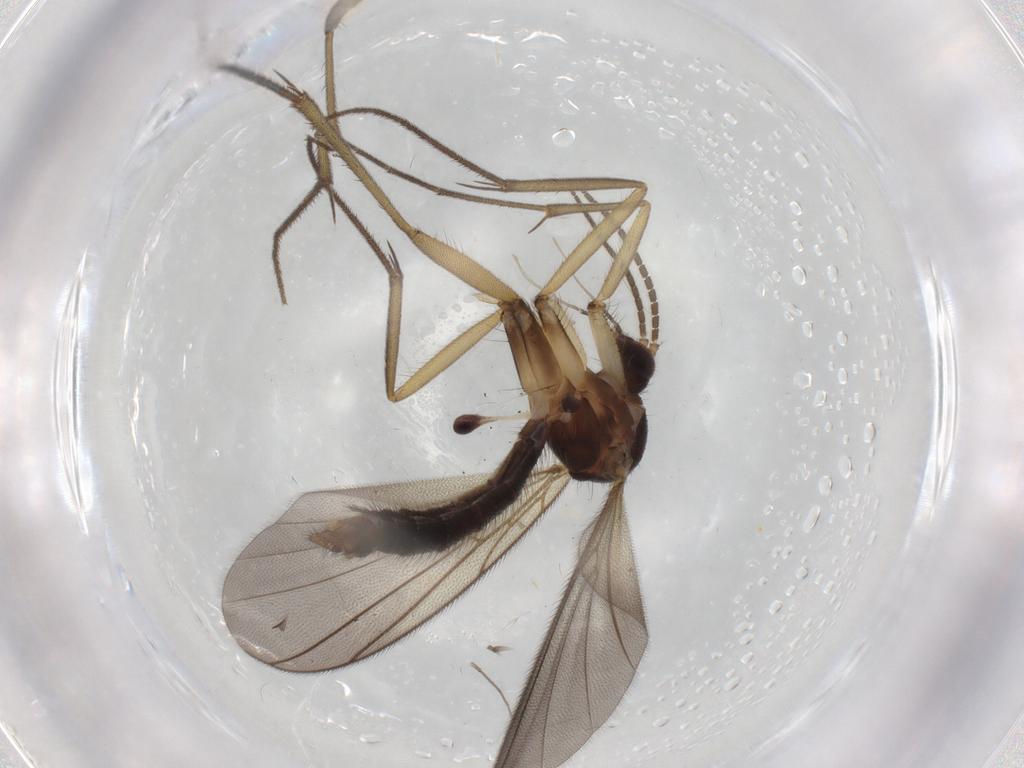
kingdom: Animalia
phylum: Arthropoda
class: Insecta
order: Diptera
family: Mycetophilidae
